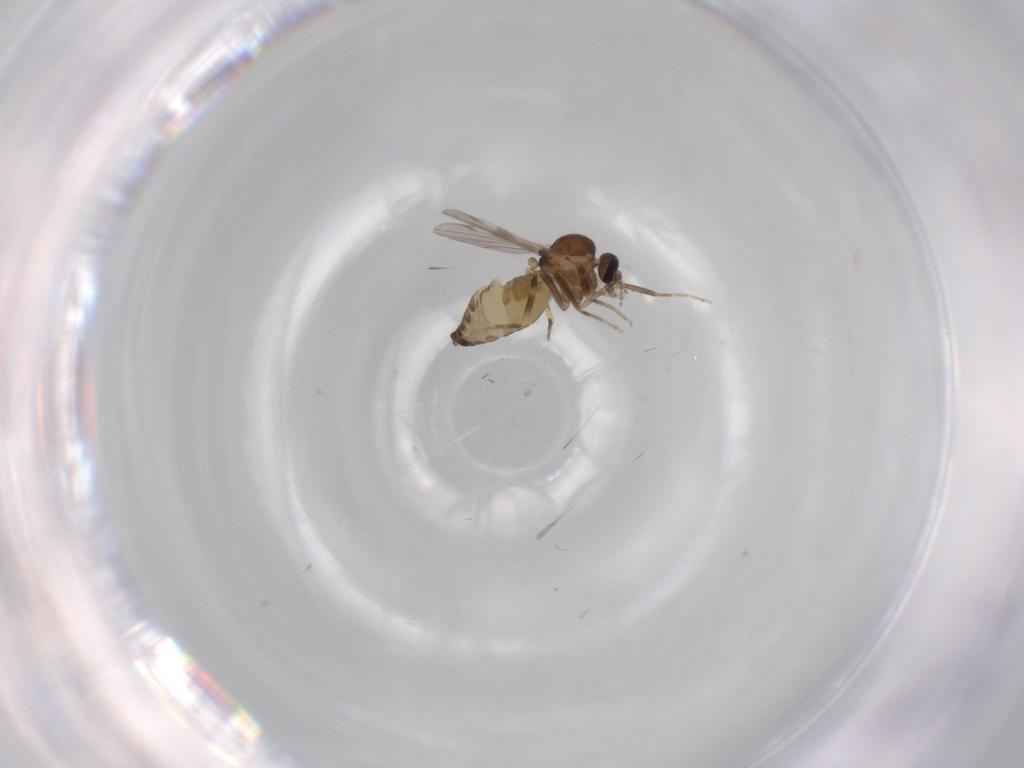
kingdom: Animalia
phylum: Arthropoda
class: Insecta
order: Diptera
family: Ceratopogonidae
